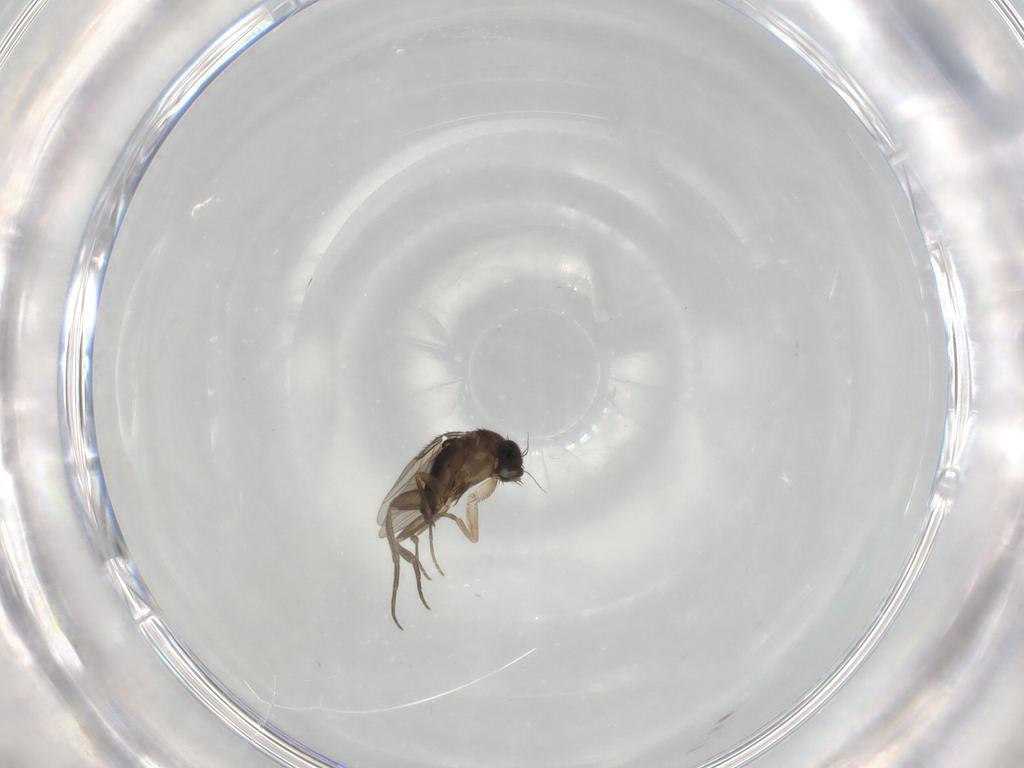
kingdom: Animalia
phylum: Arthropoda
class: Insecta
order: Diptera
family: Phoridae
